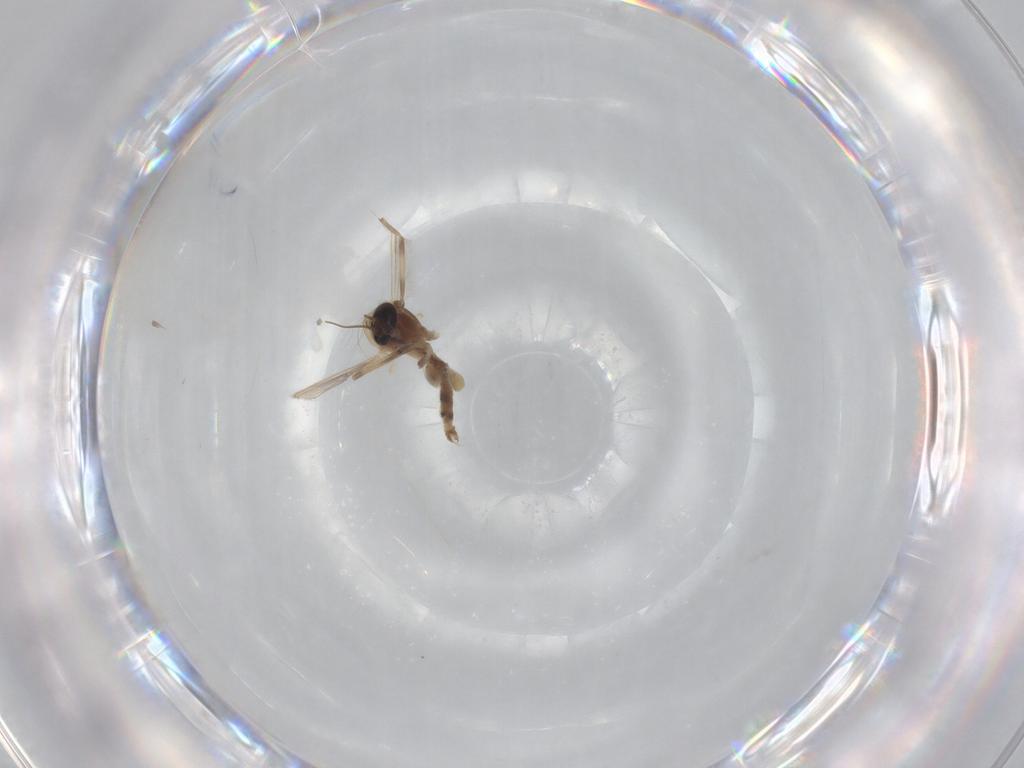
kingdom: Animalia
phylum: Arthropoda
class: Insecta
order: Diptera
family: Chironomidae
